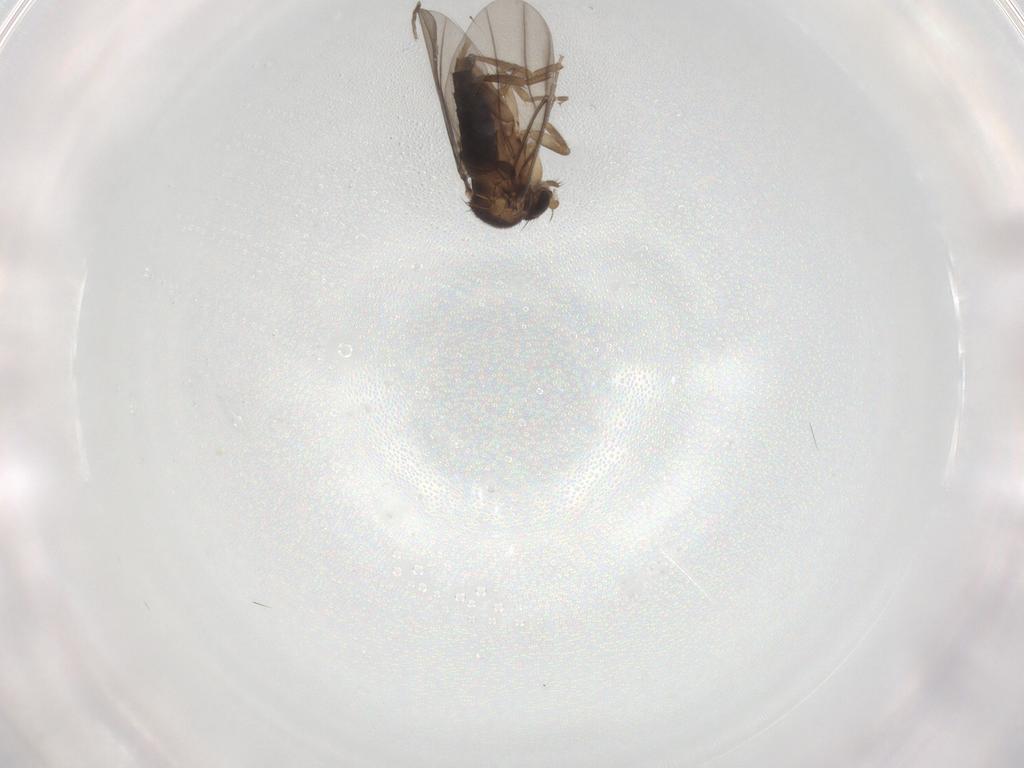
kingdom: Animalia
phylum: Arthropoda
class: Insecta
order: Diptera
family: Phoridae
